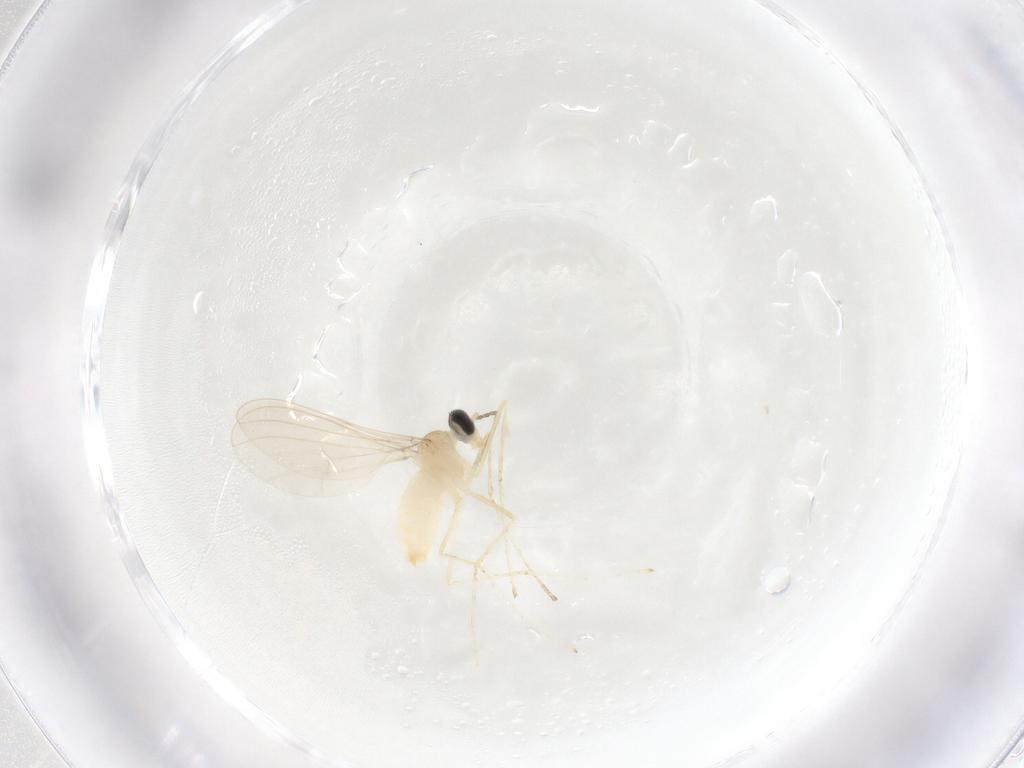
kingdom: Animalia
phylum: Arthropoda
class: Insecta
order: Diptera
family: Cecidomyiidae
